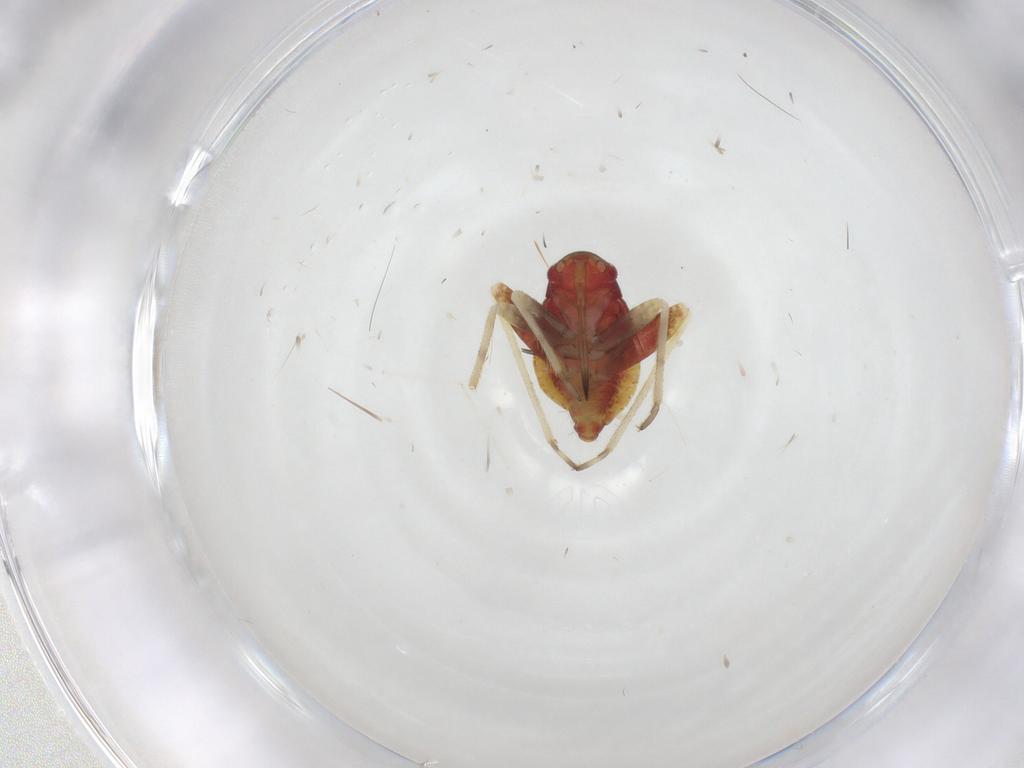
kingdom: Animalia
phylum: Arthropoda
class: Insecta
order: Hemiptera
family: Miridae
